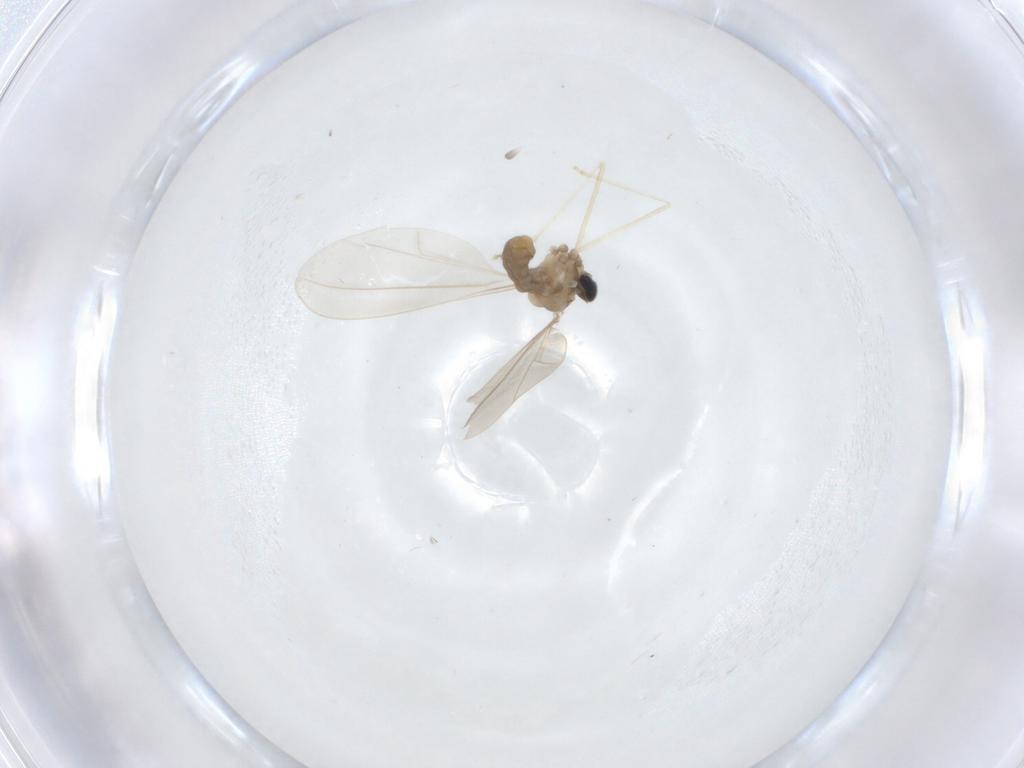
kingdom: Animalia
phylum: Arthropoda
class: Insecta
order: Diptera
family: Cecidomyiidae
